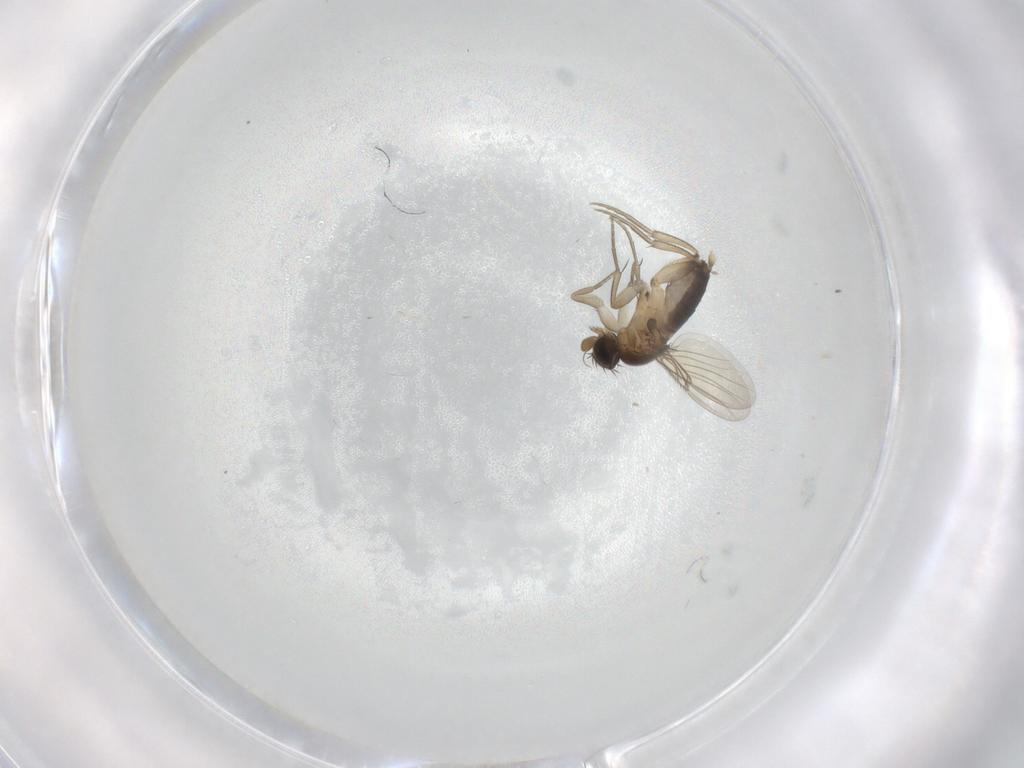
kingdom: Animalia
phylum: Arthropoda
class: Insecta
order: Diptera
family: Phoridae
